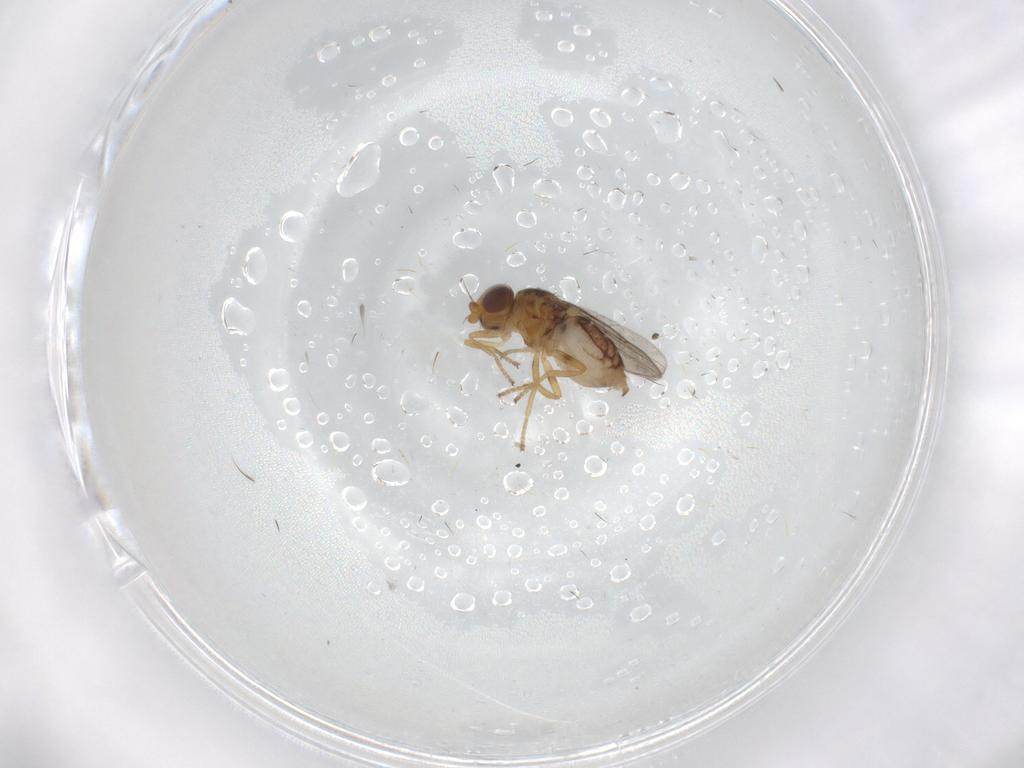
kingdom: Animalia
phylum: Arthropoda
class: Insecta
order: Diptera
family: Chloropidae
